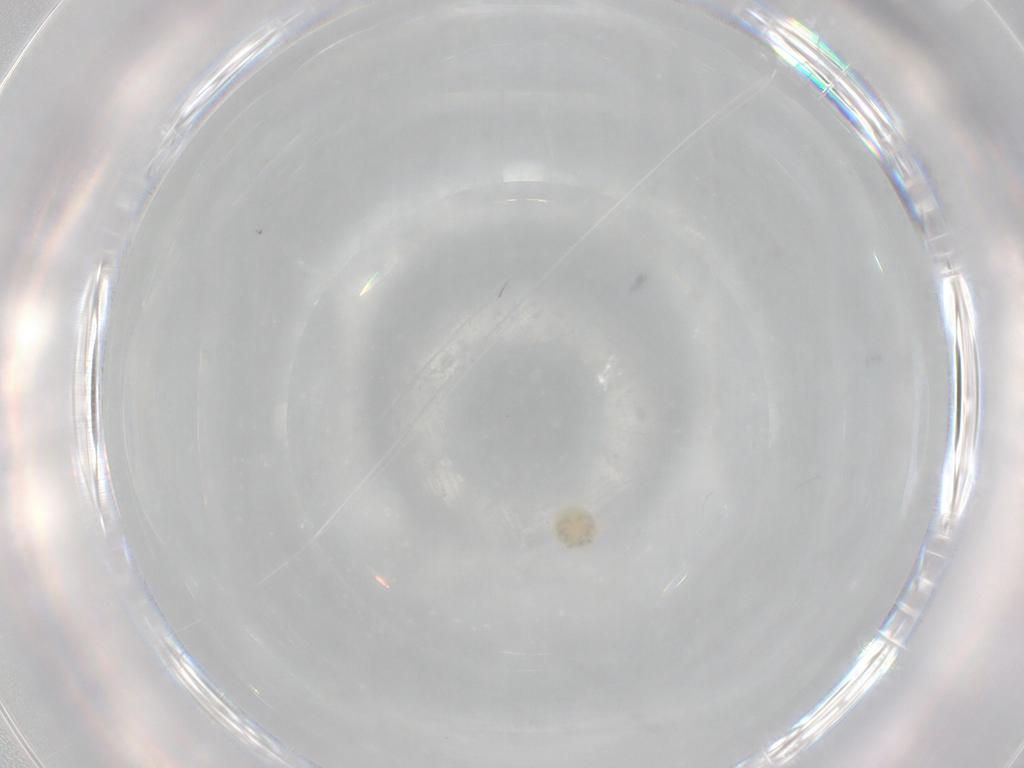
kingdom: Animalia
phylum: Arthropoda
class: Arachnida
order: Trombidiformes
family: Lebertiidae
